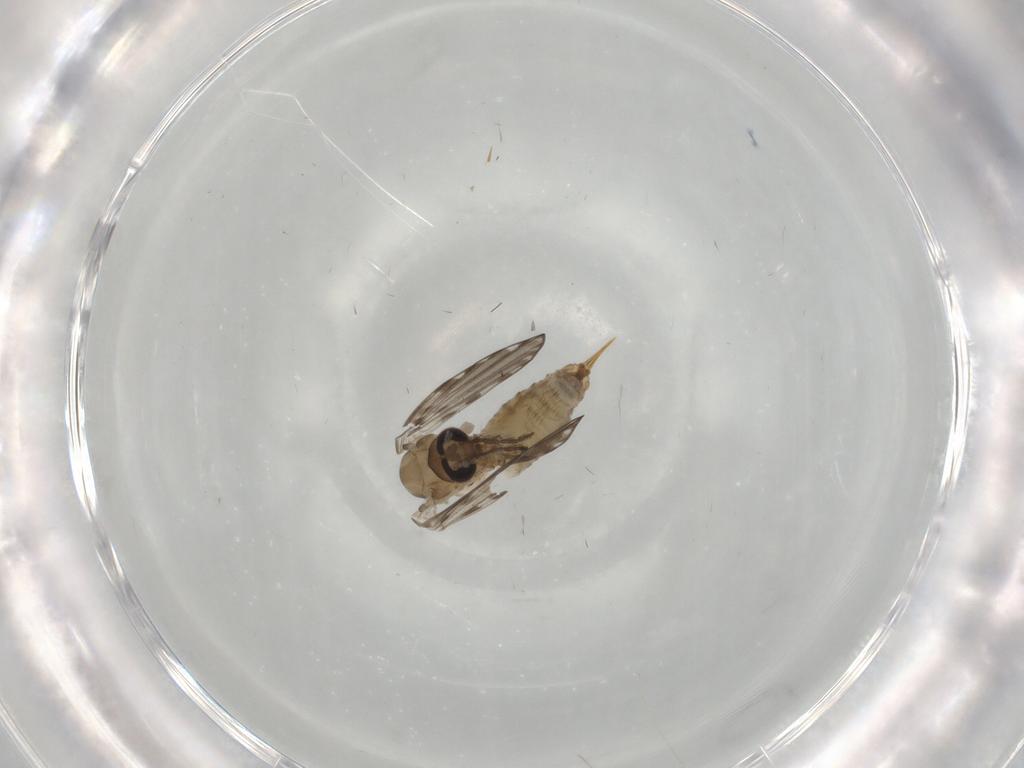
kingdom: Animalia
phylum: Arthropoda
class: Insecta
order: Diptera
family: Psychodidae
